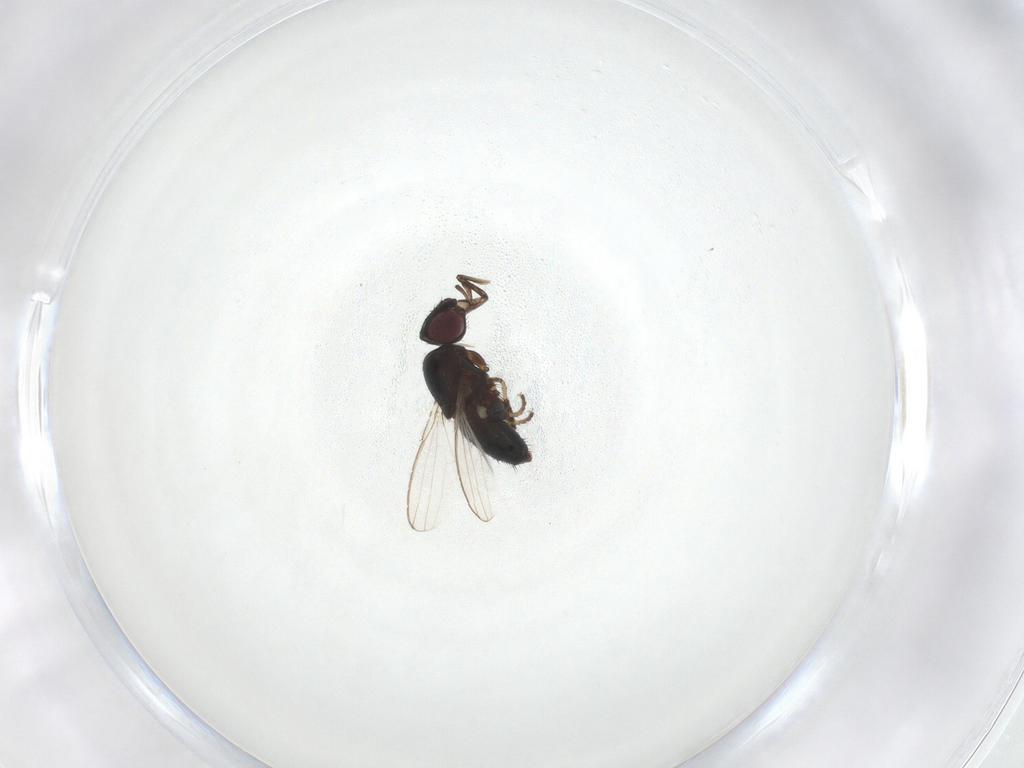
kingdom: Animalia
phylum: Arthropoda
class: Insecta
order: Diptera
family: Milichiidae
